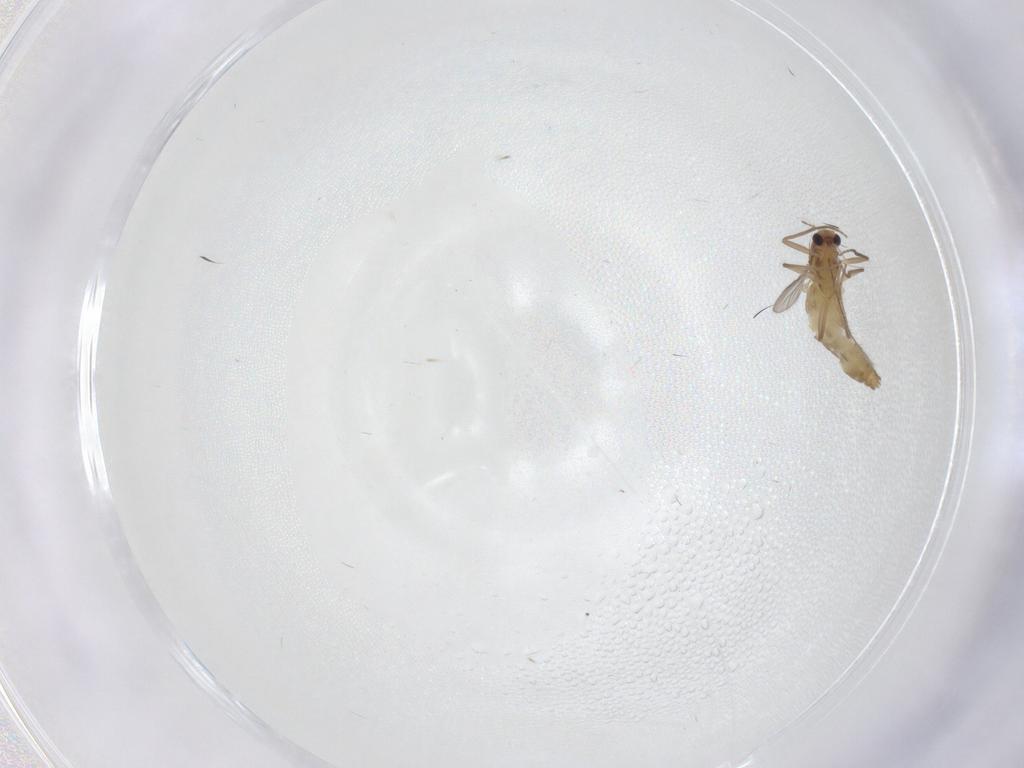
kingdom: Animalia
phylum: Arthropoda
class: Insecta
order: Diptera
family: Chironomidae
